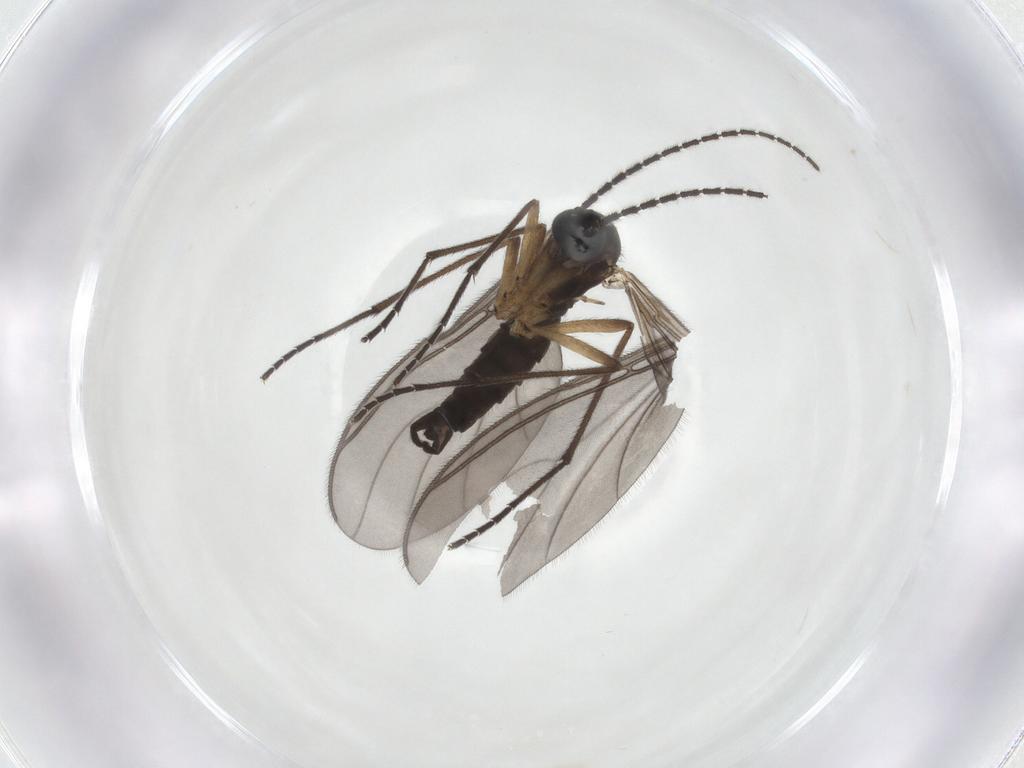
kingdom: Animalia
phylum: Arthropoda
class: Insecta
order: Diptera
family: Sciaridae
